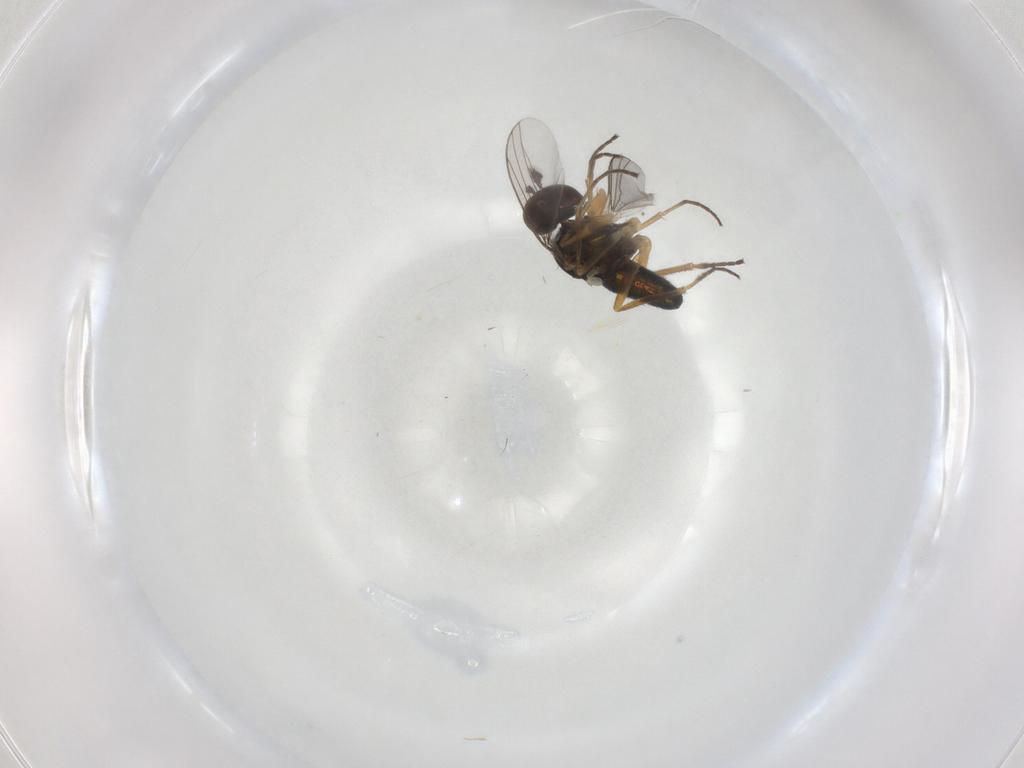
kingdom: Animalia
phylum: Arthropoda
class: Insecta
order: Diptera
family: Dolichopodidae
